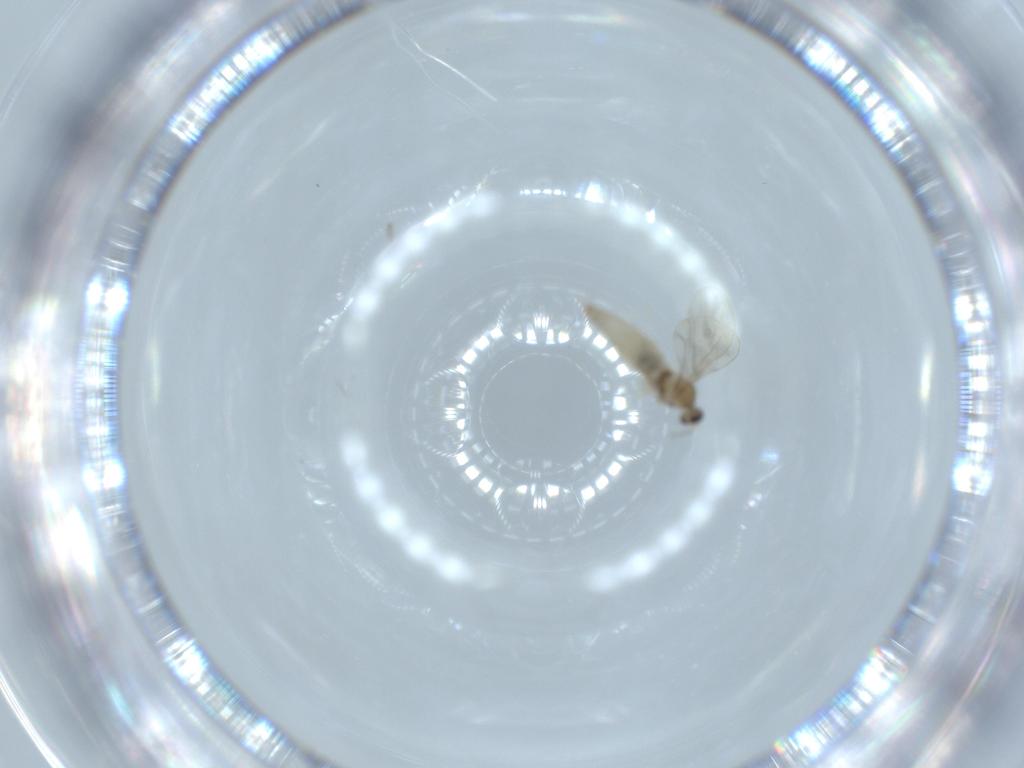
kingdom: Animalia
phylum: Arthropoda
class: Insecta
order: Diptera
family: Cecidomyiidae
